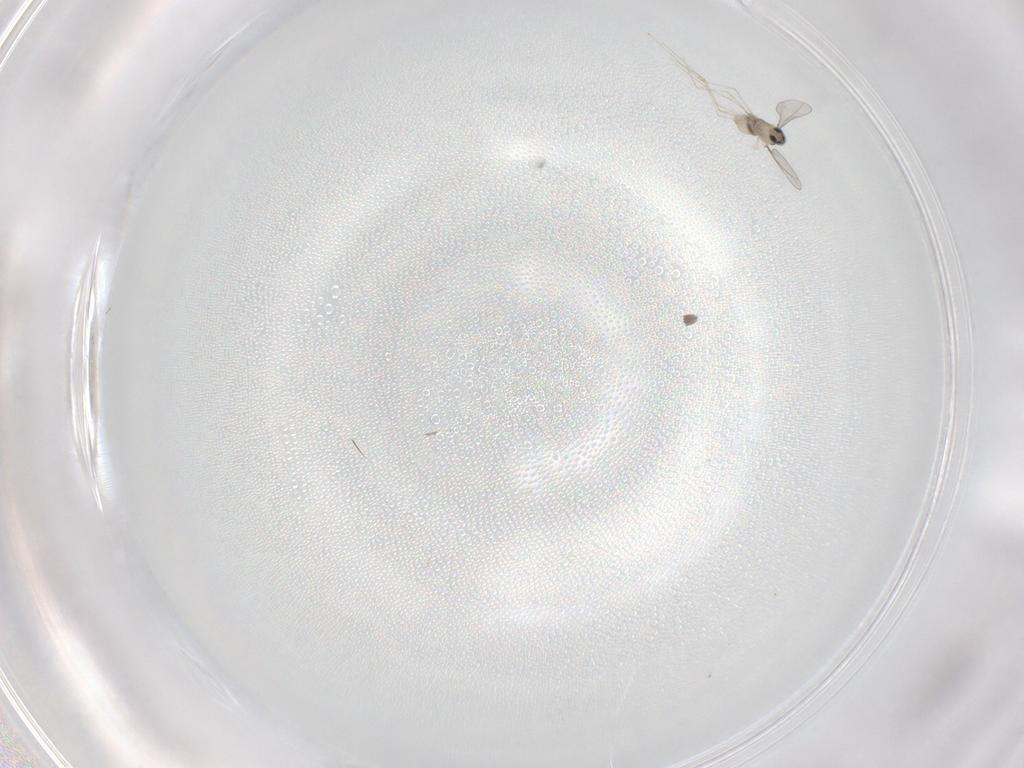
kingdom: Animalia
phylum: Arthropoda
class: Insecta
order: Diptera
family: Cecidomyiidae
